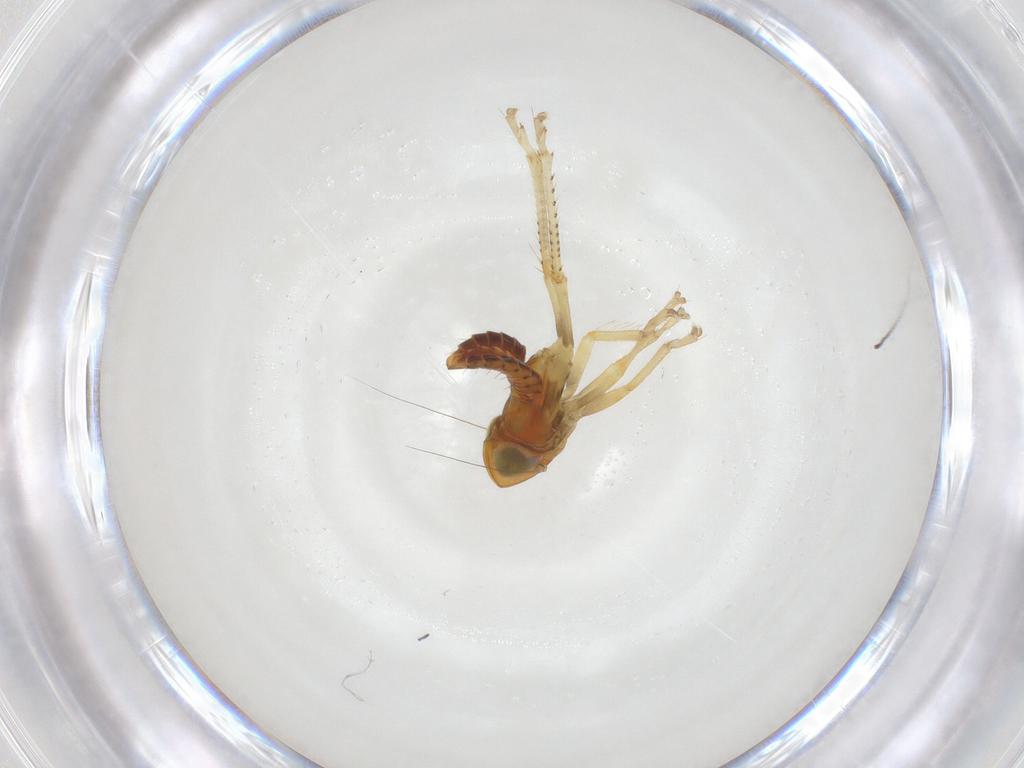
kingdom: Animalia
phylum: Arthropoda
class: Insecta
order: Hemiptera
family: Cicadellidae
